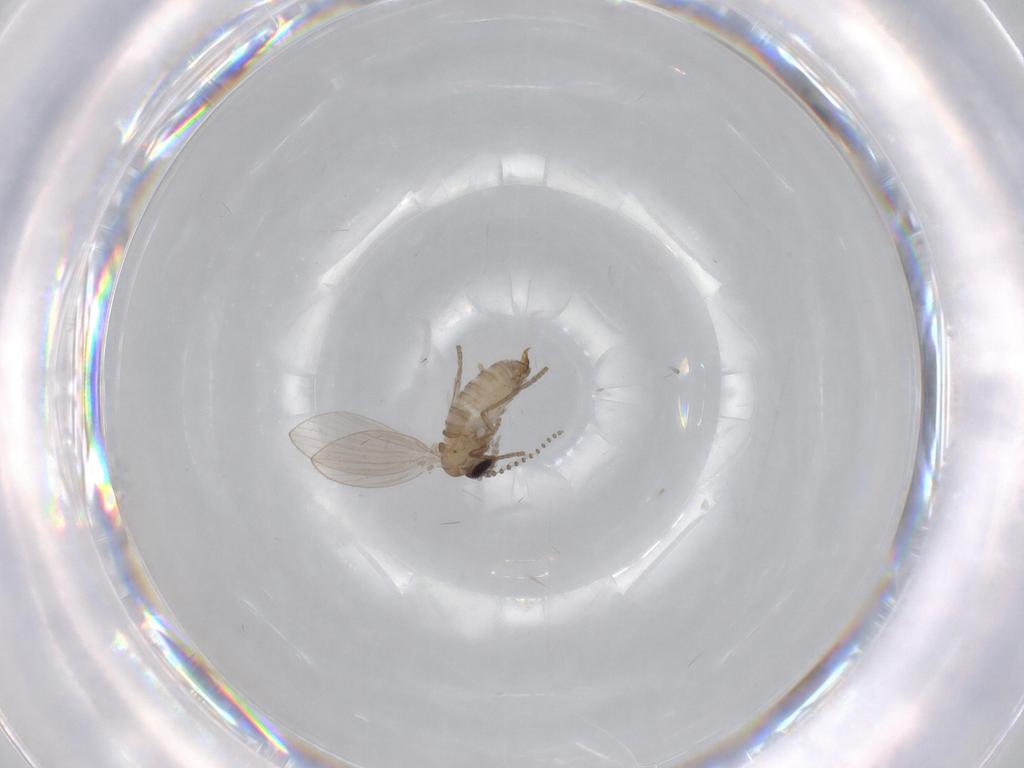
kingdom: Animalia
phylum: Arthropoda
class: Insecta
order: Diptera
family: Psychodidae
